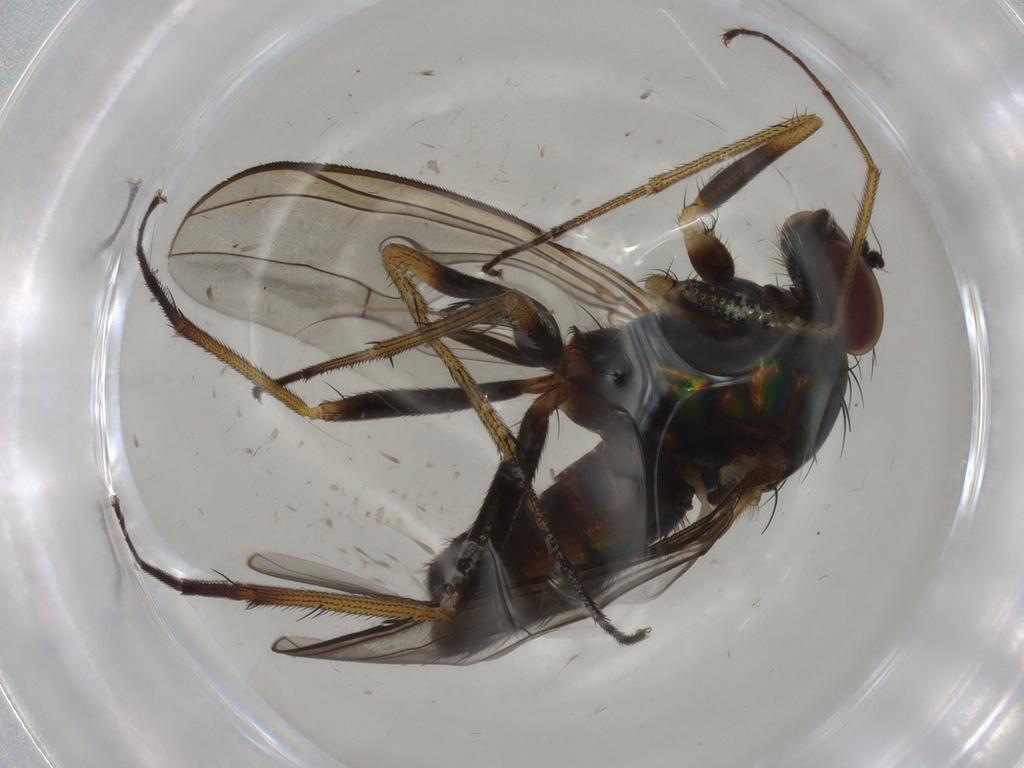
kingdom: Animalia
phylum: Arthropoda
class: Insecta
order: Diptera
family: Dolichopodidae
